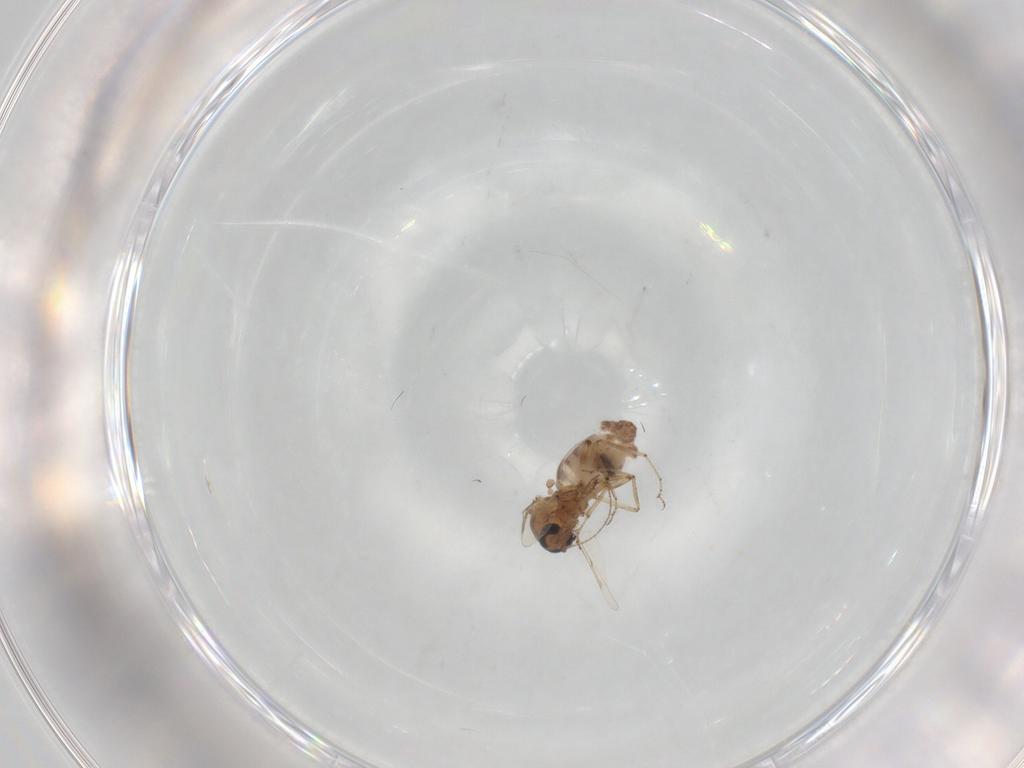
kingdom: Animalia
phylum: Arthropoda
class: Insecta
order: Diptera
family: Ceratopogonidae
